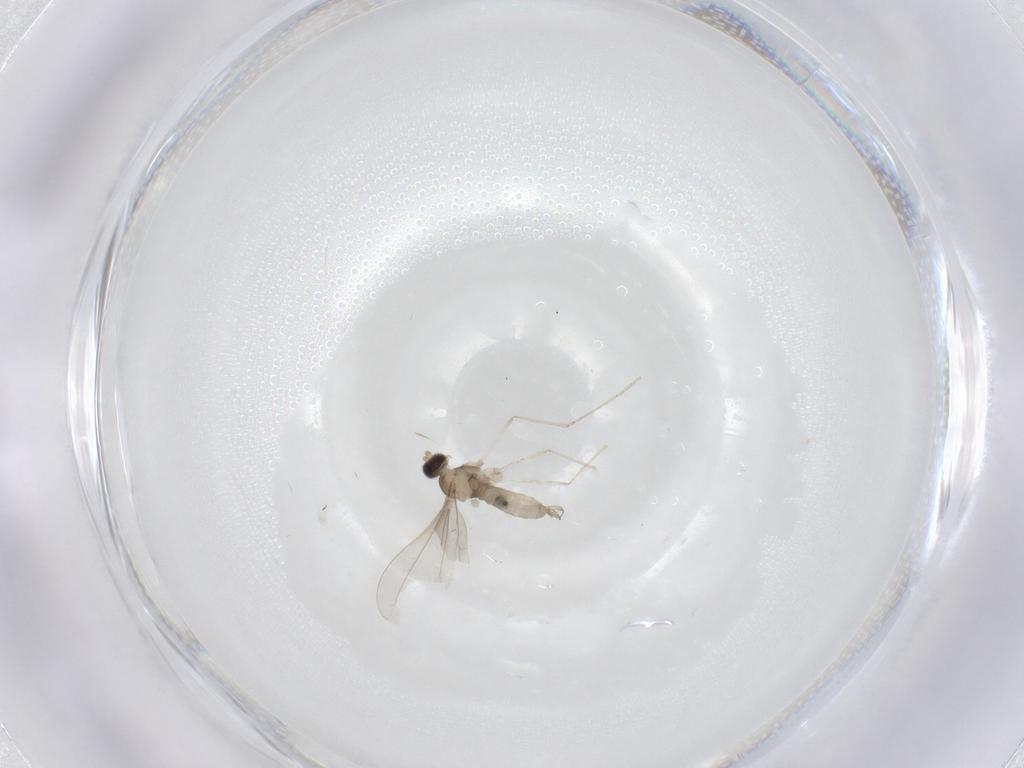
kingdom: Animalia
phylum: Arthropoda
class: Insecta
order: Diptera
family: Cecidomyiidae
